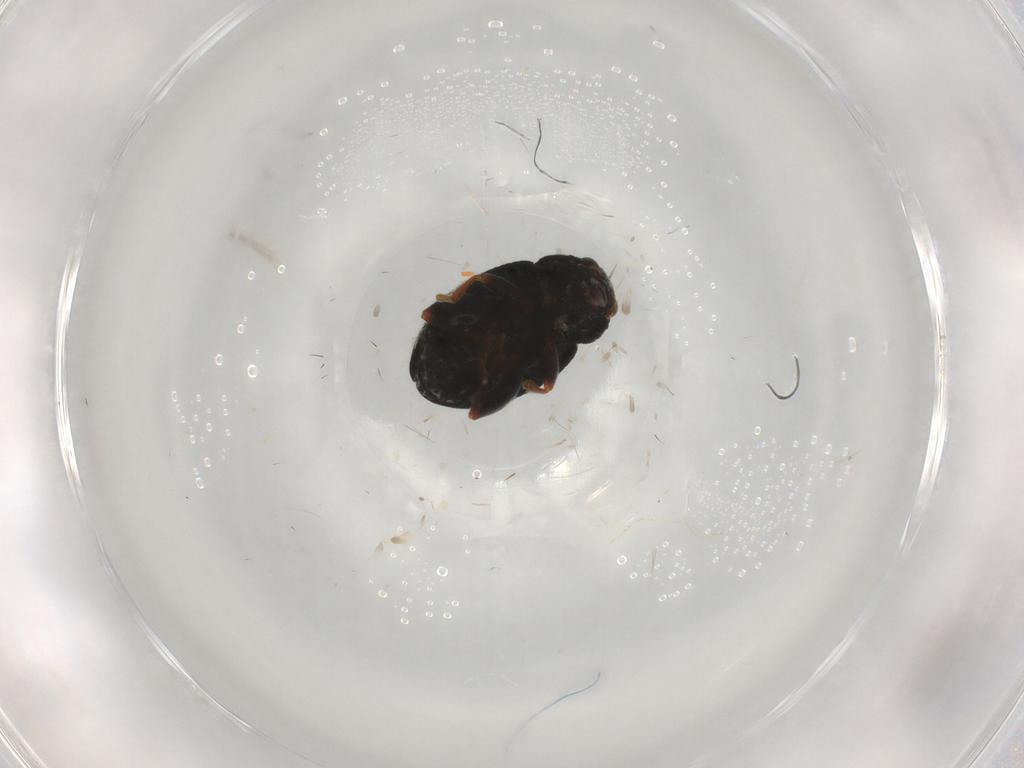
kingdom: Animalia
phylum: Arthropoda
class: Insecta
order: Coleoptera
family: Chrysomelidae
